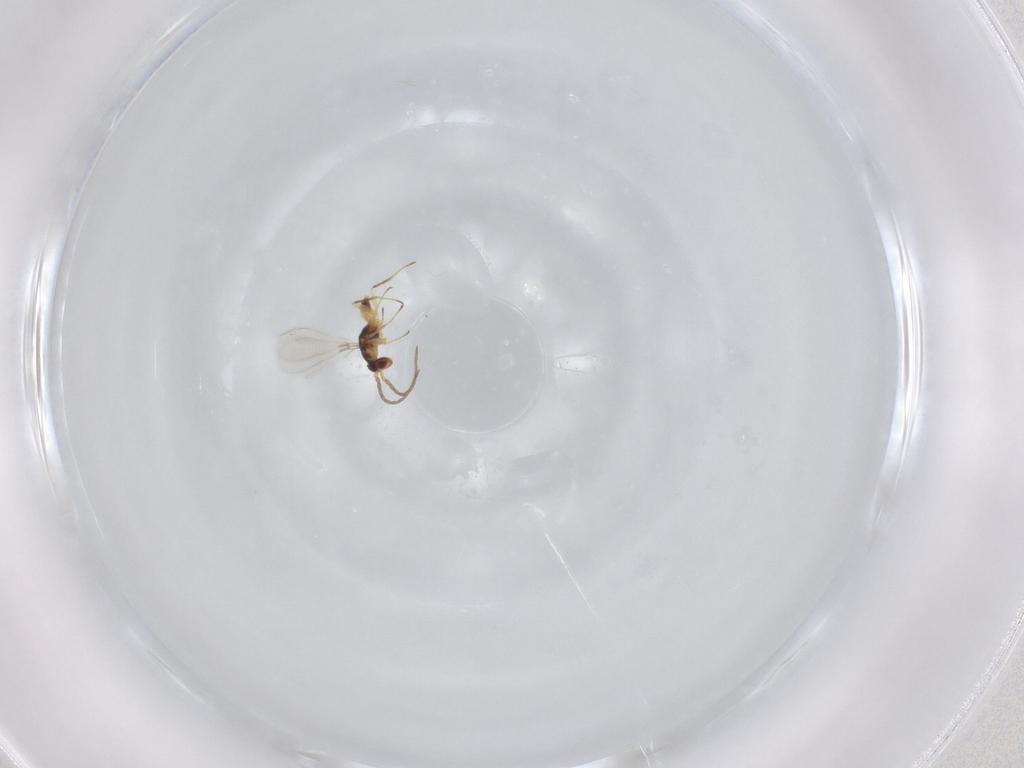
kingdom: Animalia
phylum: Arthropoda
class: Insecta
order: Hymenoptera
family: Mymaridae
